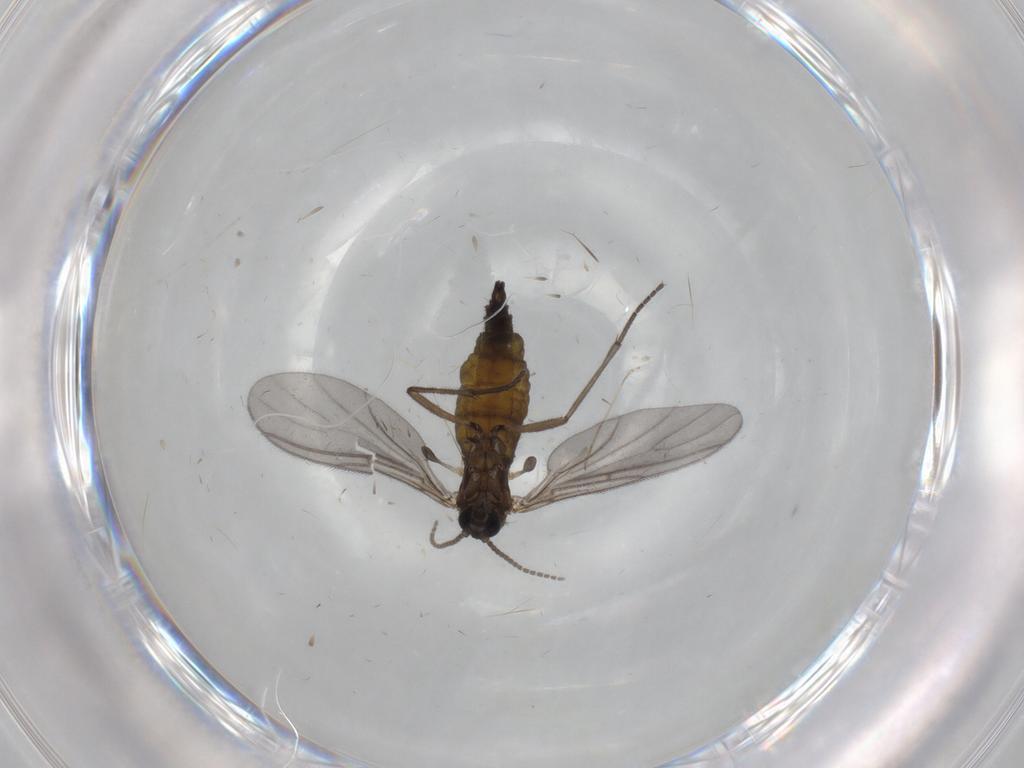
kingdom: Animalia
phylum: Arthropoda
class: Insecta
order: Diptera
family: Sciaridae
